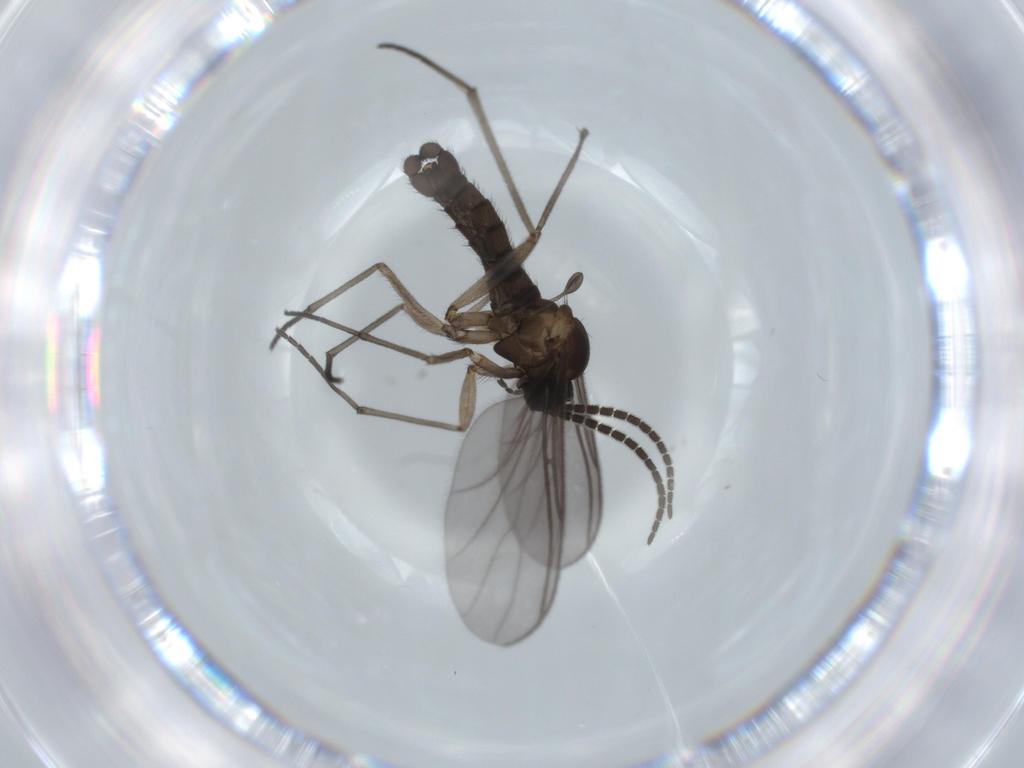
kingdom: Animalia
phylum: Arthropoda
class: Insecta
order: Diptera
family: Sciaridae
